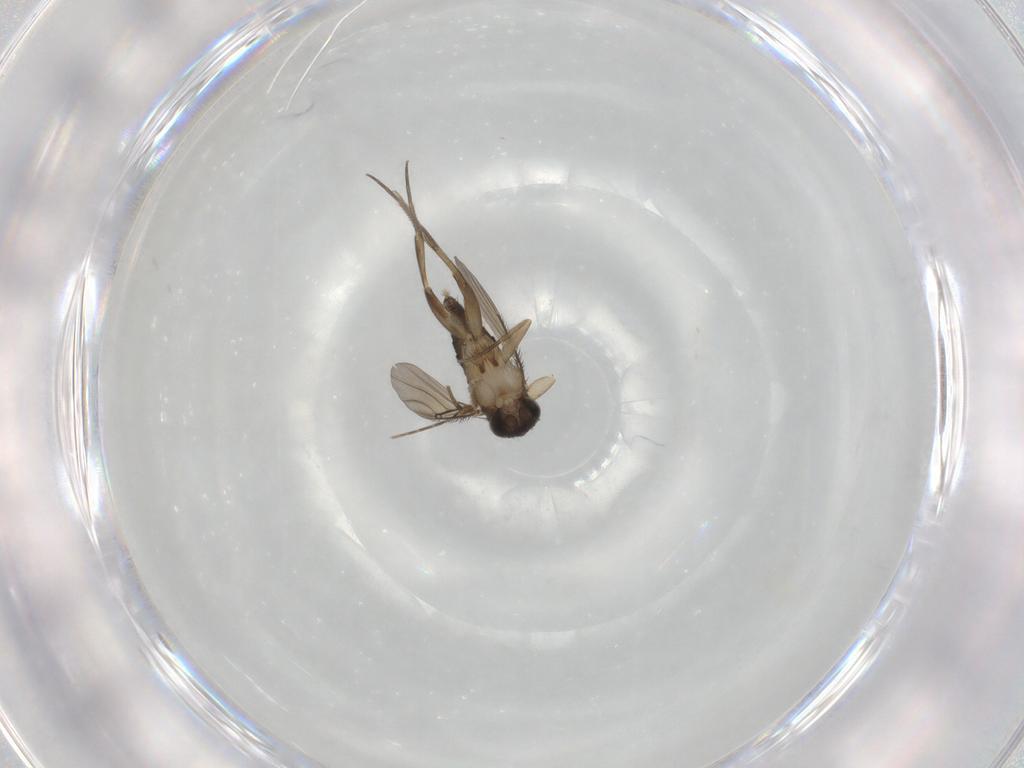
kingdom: Animalia
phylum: Arthropoda
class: Insecta
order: Diptera
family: Phoridae
